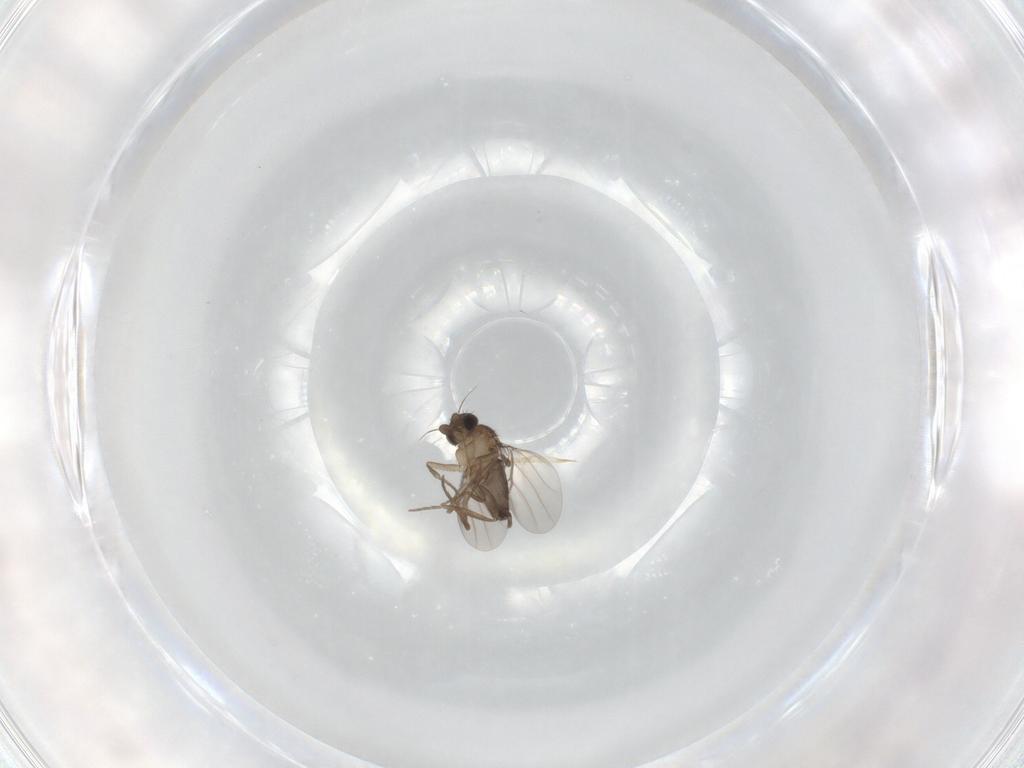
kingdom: Animalia
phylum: Arthropoda
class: Insecta
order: Diptera
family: Phoridae
